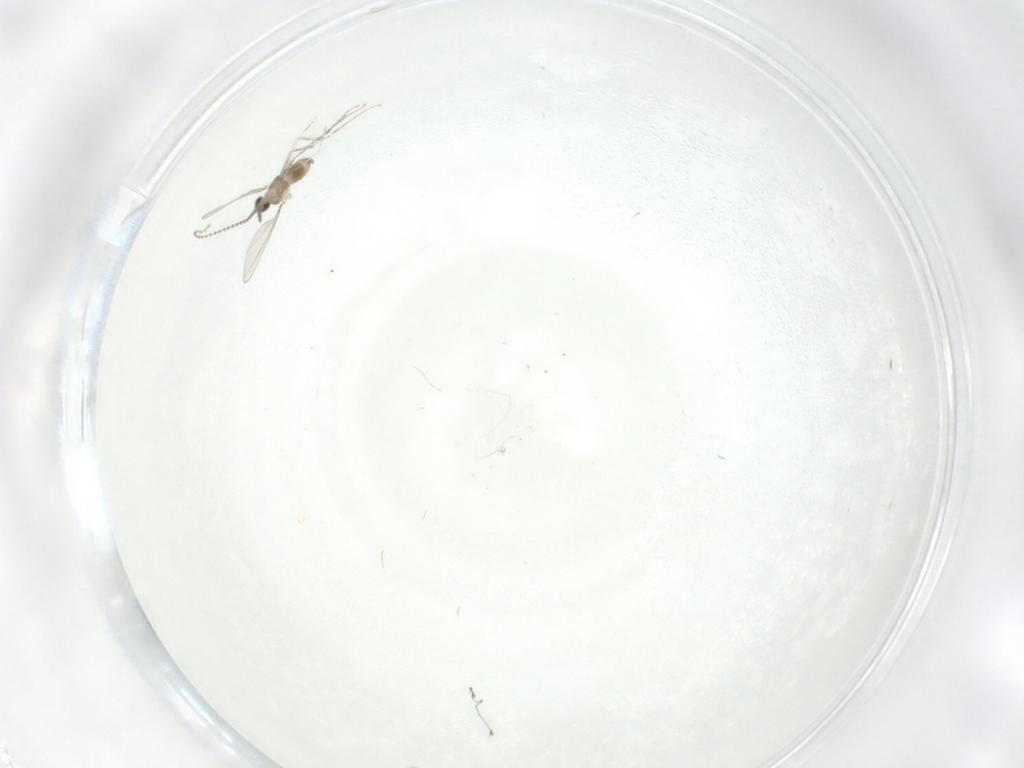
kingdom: Animalia
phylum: Arthropoda
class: Insecta
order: Diptera
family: Cecidomyiidae
